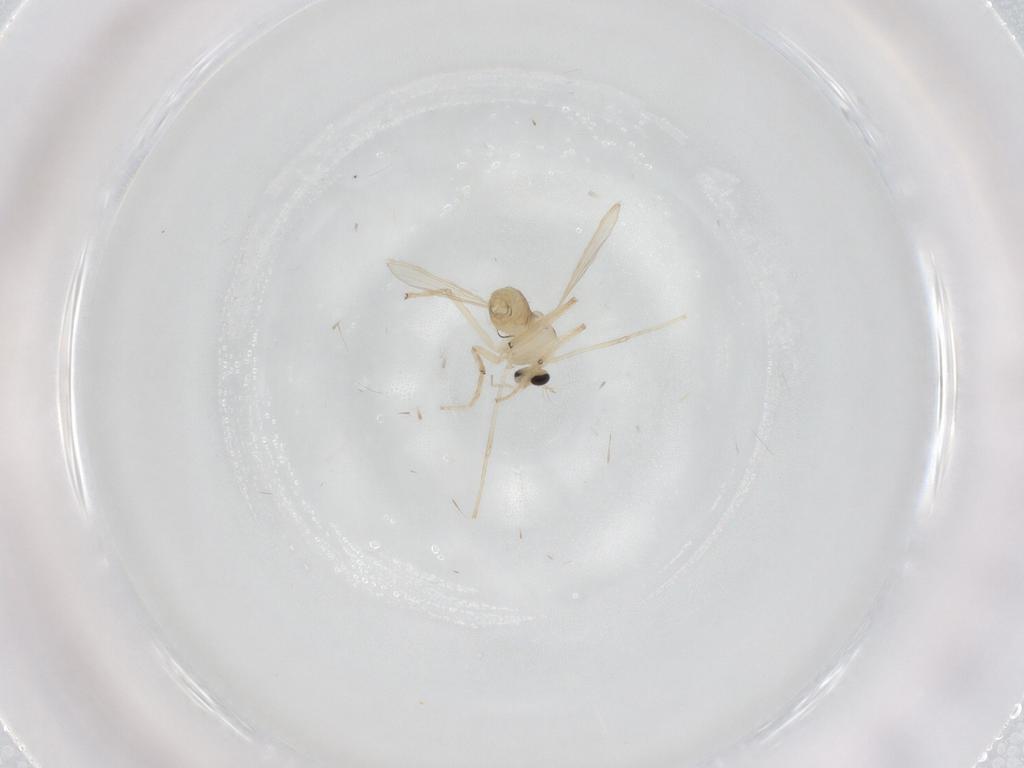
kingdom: Animalia
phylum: Arthropoda
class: Insecta
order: Diptera
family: Chironomidae
